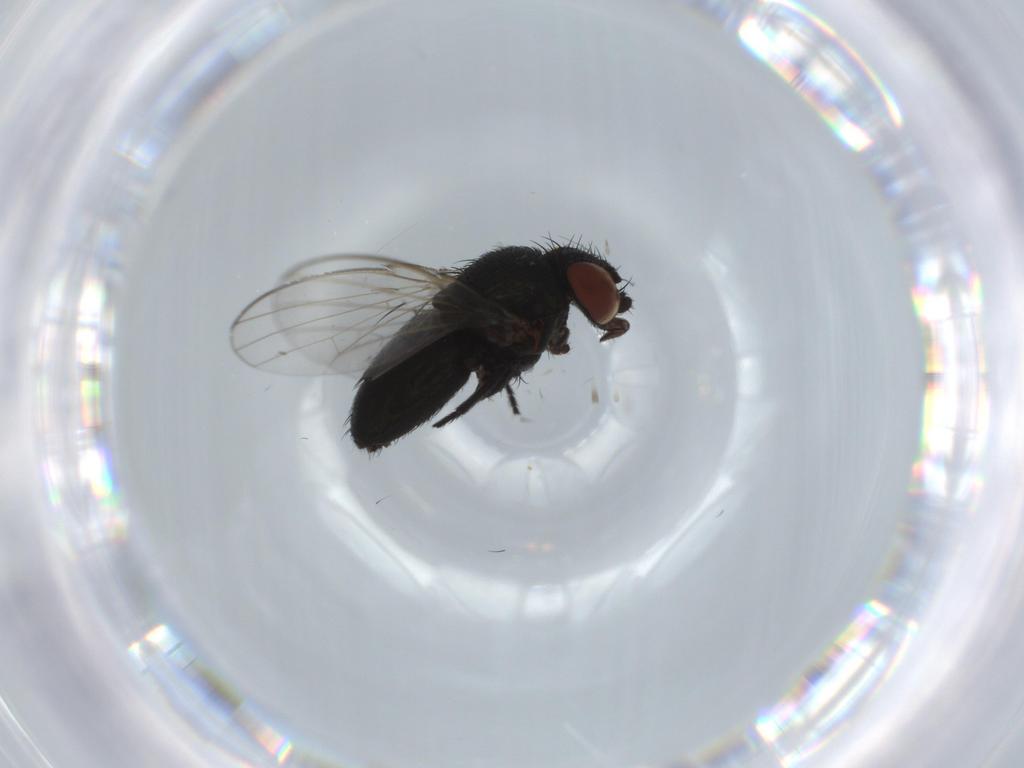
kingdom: Animalia
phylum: Arthropoda
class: Insecta
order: Diptera
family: Phoridae
